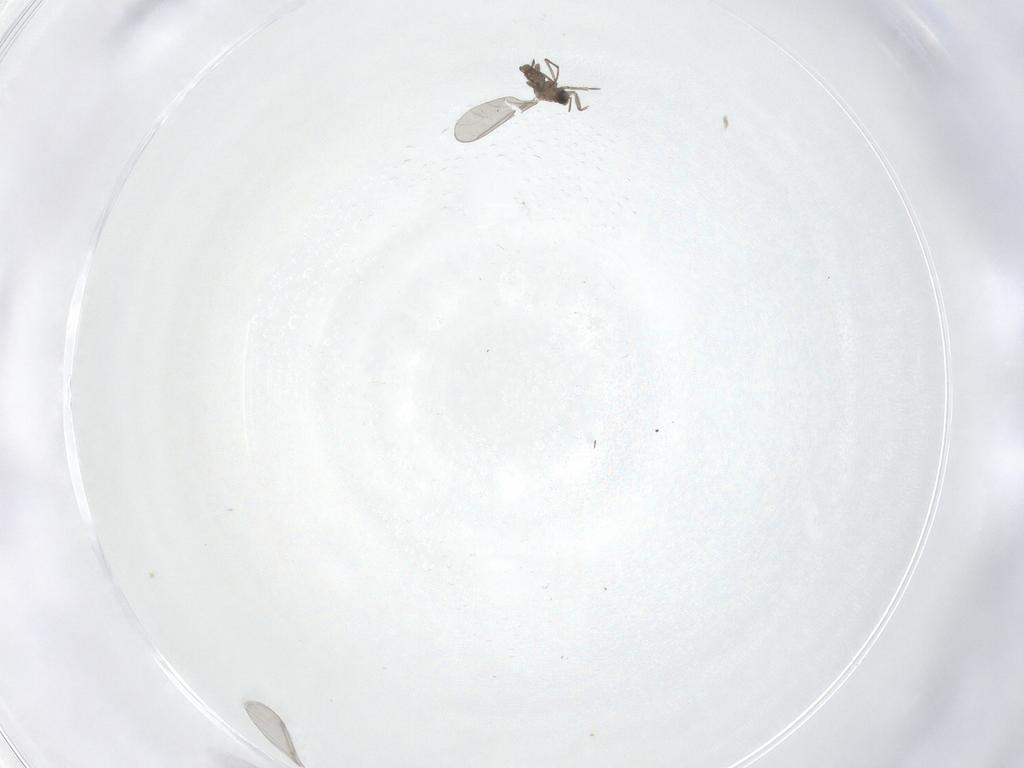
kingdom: Animalia
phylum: Arthropoda
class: Insecta
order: Diptera
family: Sciaridae
